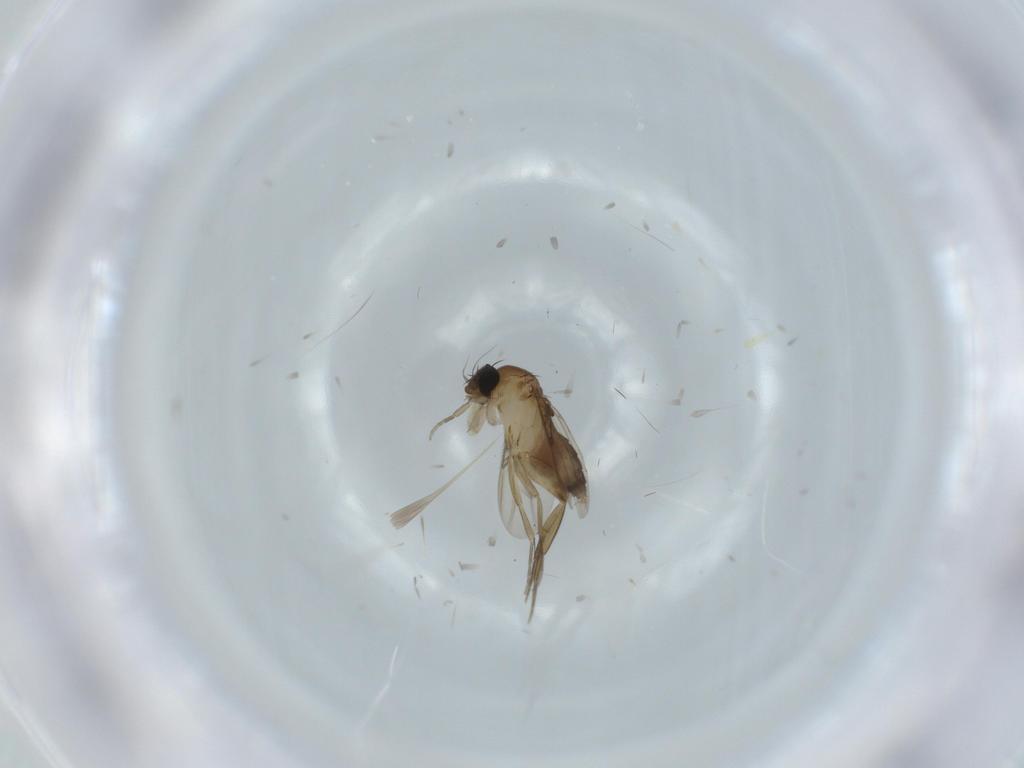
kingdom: Animalia
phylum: Arthropoda
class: Insecta
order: Diptera
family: Phoridae
